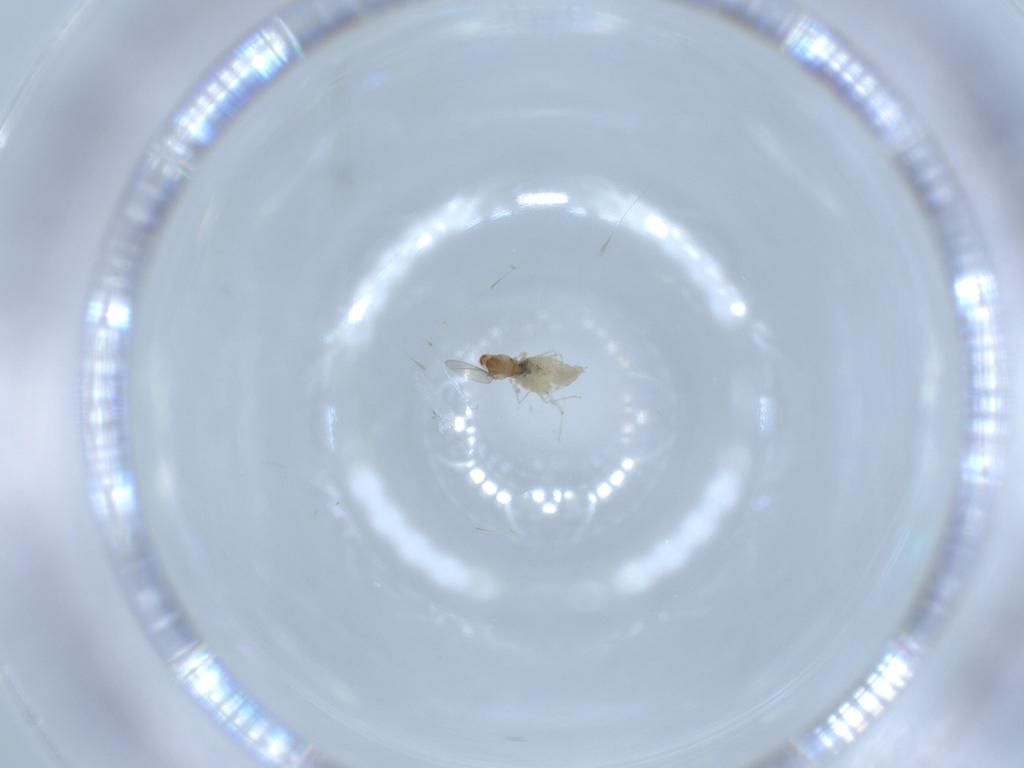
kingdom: Animalia
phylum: Arthropoda
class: Insecta
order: Diptera
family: Cecidomyiidae
